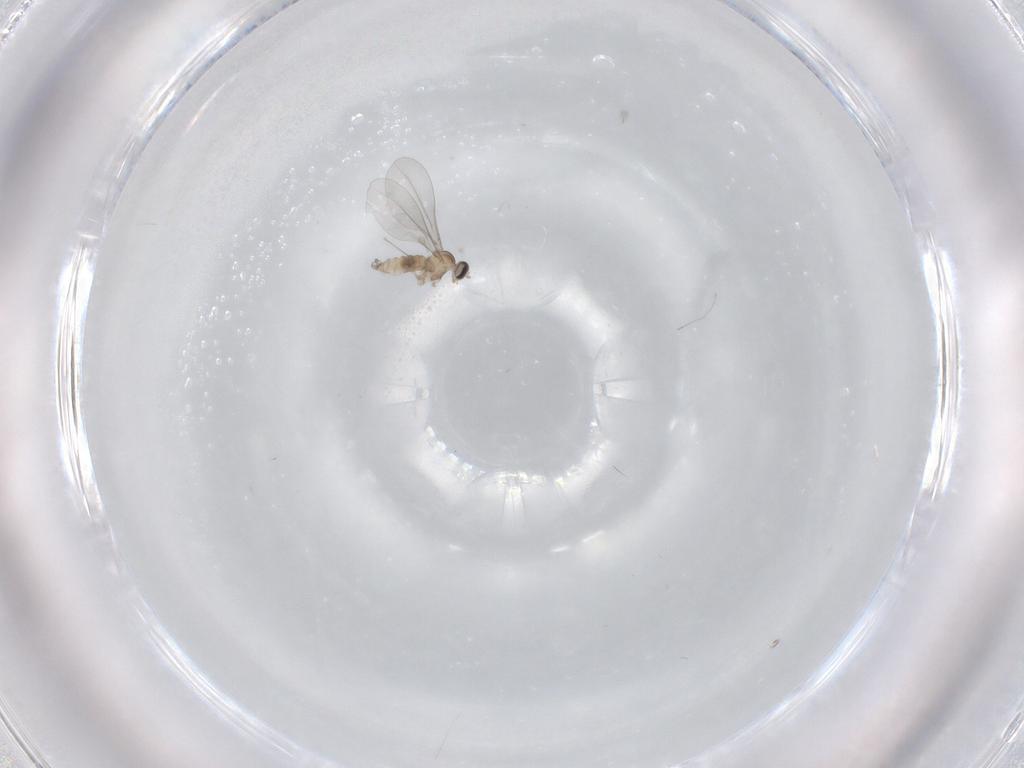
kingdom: Animalia
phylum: Arthropoda
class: Insecta
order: Diptera
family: Cecidomyiidae
